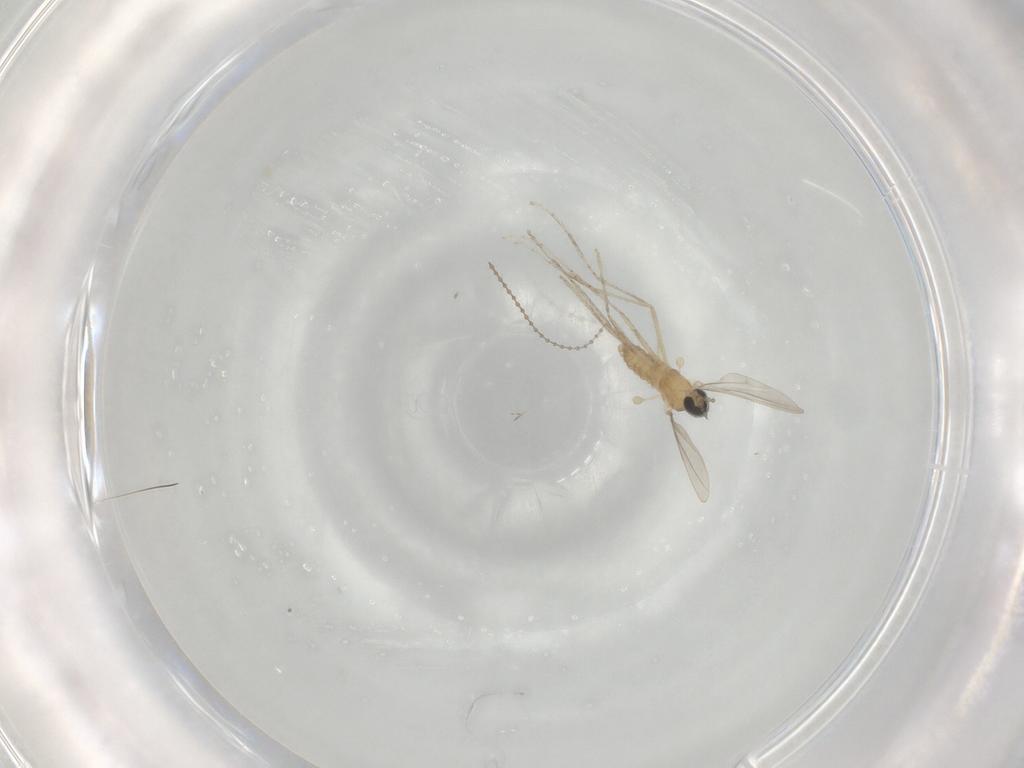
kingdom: Animalia
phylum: Arthropoda
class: Insecta
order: Diptera
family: Cecidomyiidae
